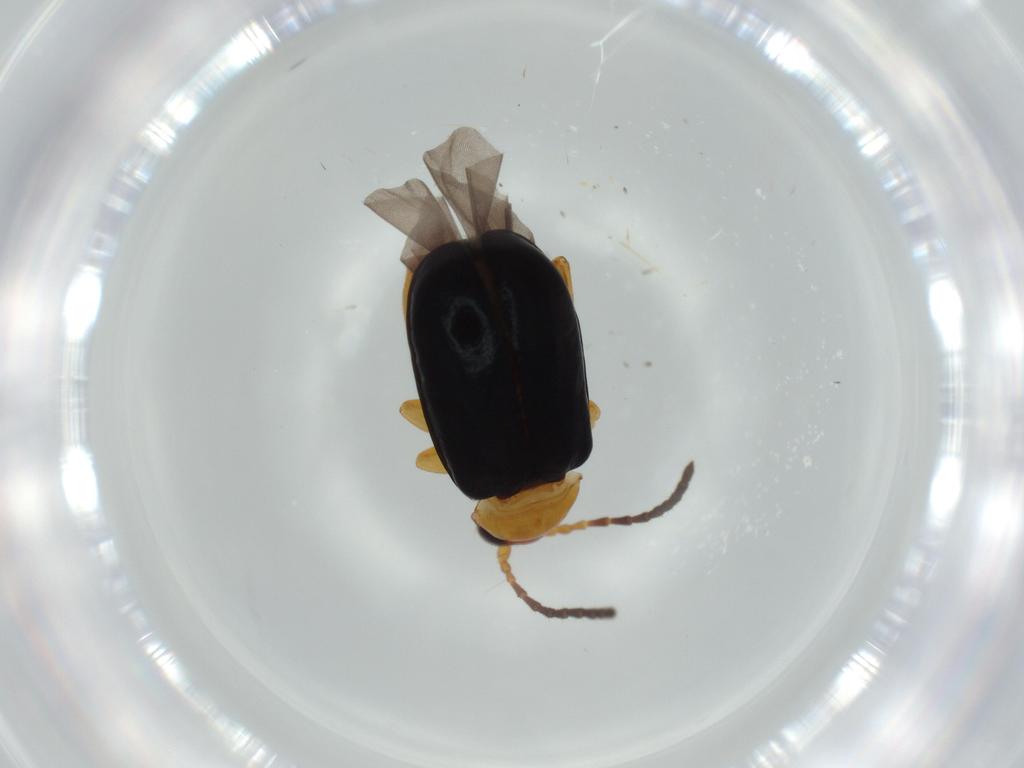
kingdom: Animalia
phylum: Arthropoda
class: Insecta
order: Coleoptera
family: Chrysomelidae
